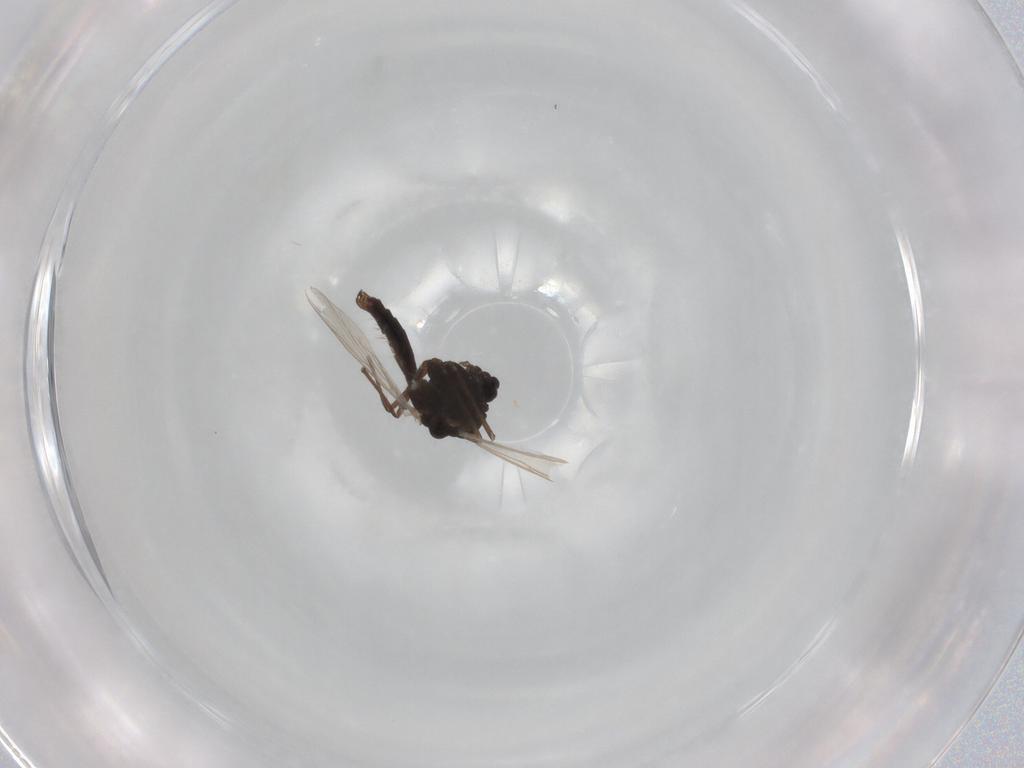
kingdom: Animalia
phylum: Arthropoda
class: Insecta
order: Diptera
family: Chironomidae
